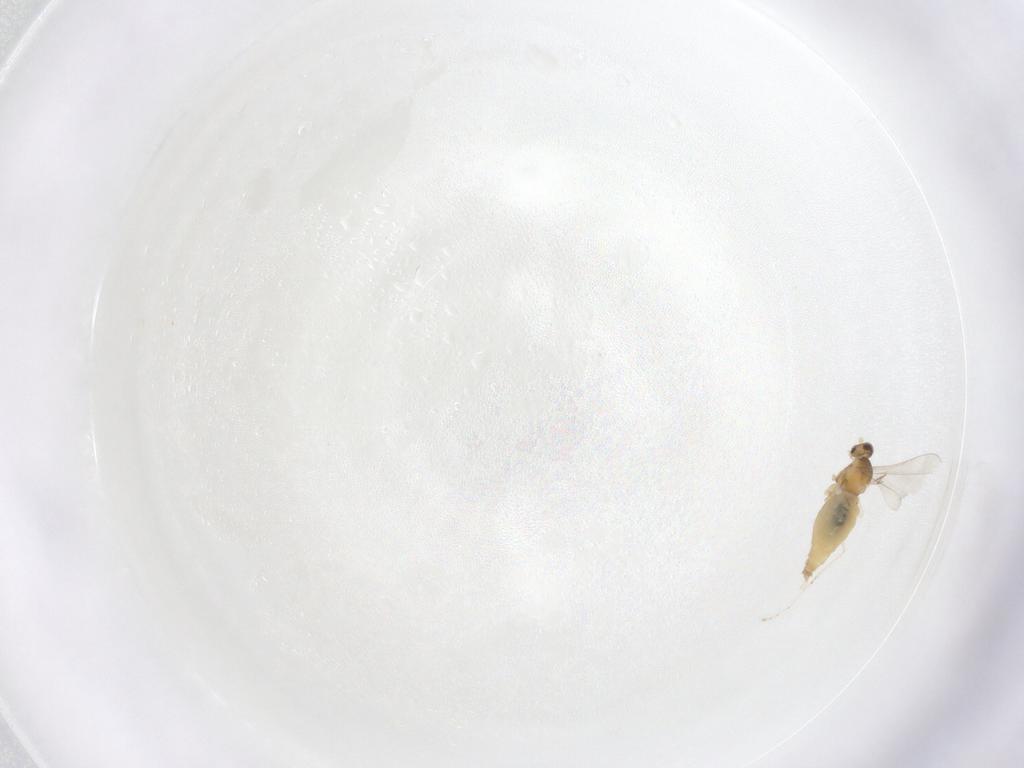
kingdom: Animalia
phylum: Arthropoda
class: Insecta
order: Diptera
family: Cecidomyiidae
